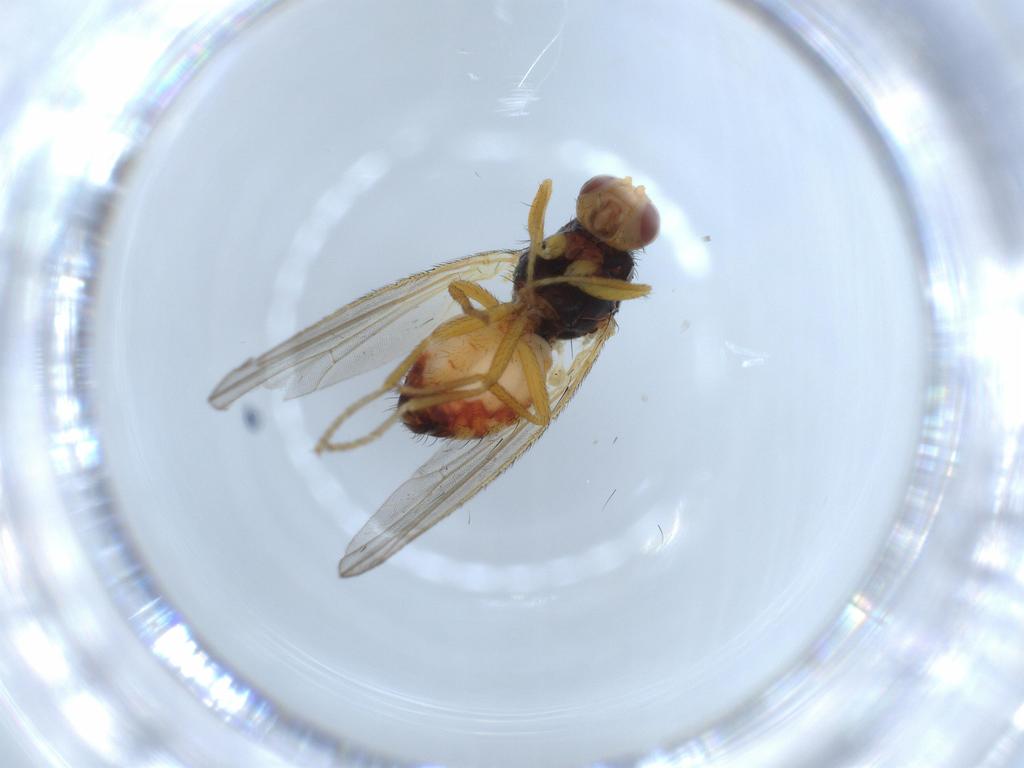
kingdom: Animalia
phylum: Arthropoda
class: Insecta
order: Diptera
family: Heleomyzidae
